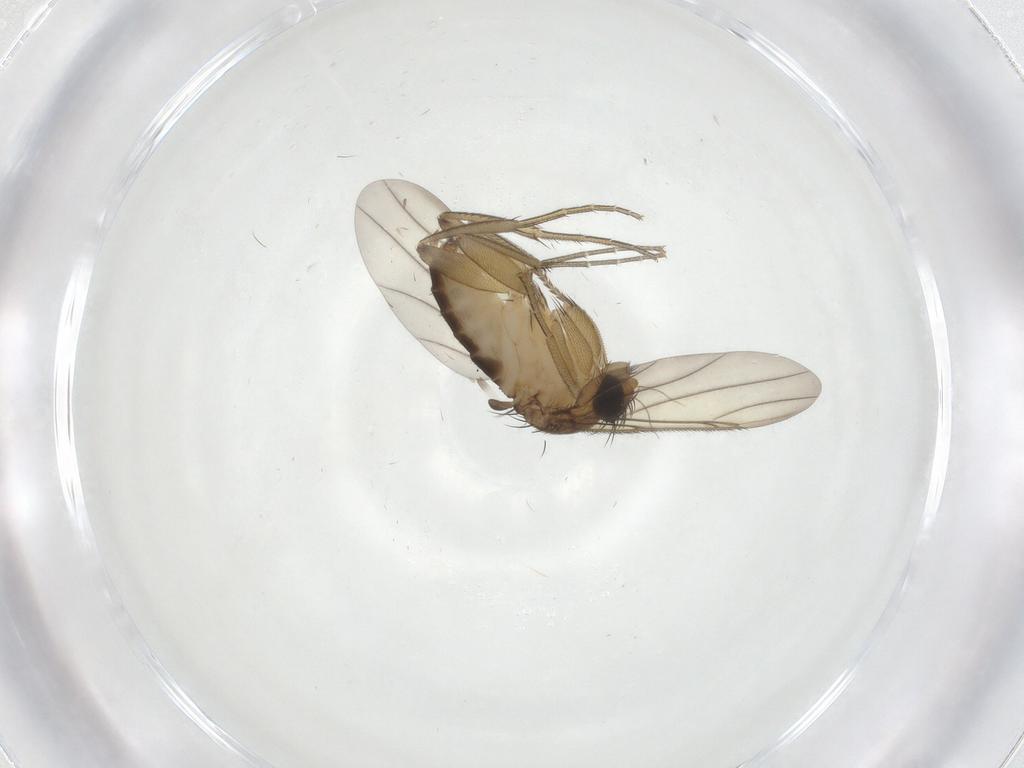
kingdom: Animalia
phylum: Arthropoda
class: Insecta
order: Diptera
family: Phoridae
